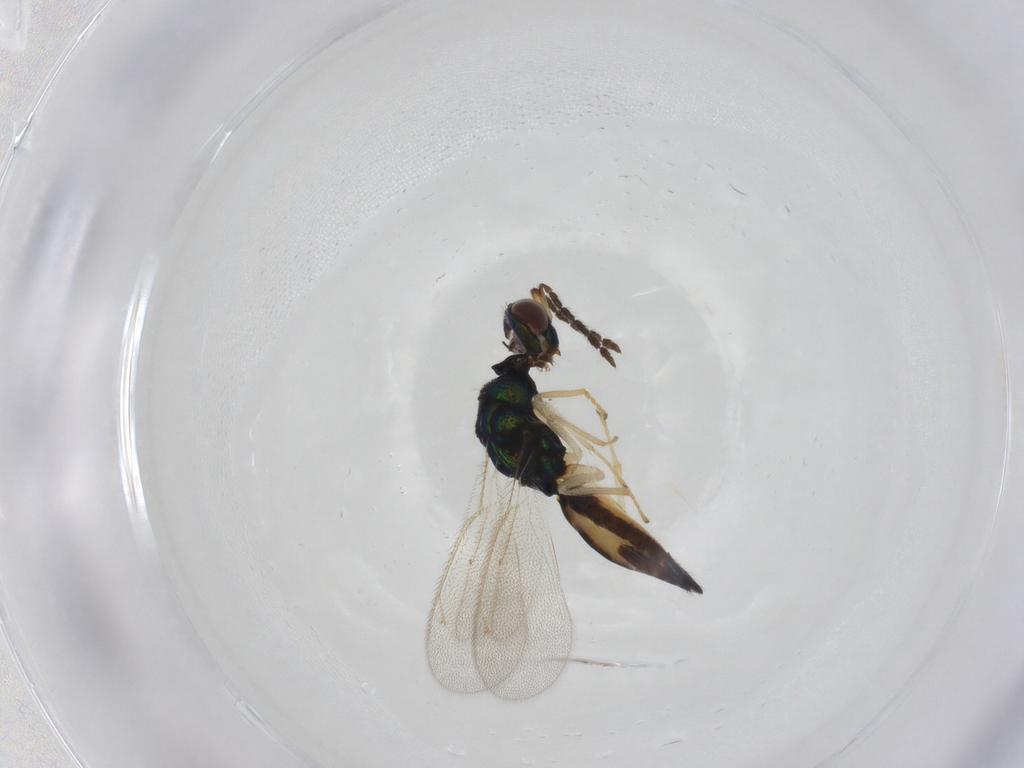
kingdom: Animalia
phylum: Arthropoda
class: Insecta
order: Hymenoptera
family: Eulophidae
